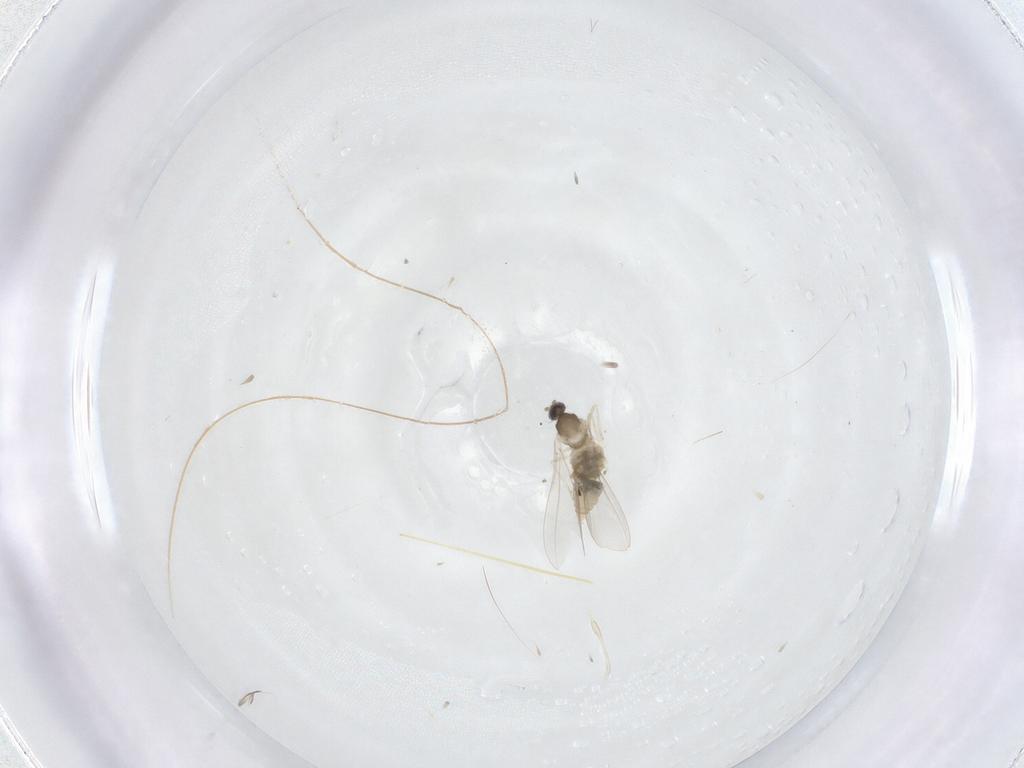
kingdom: Animalia
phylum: Arthropoda
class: Insecta
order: Diptera
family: Cecidomyiidae
